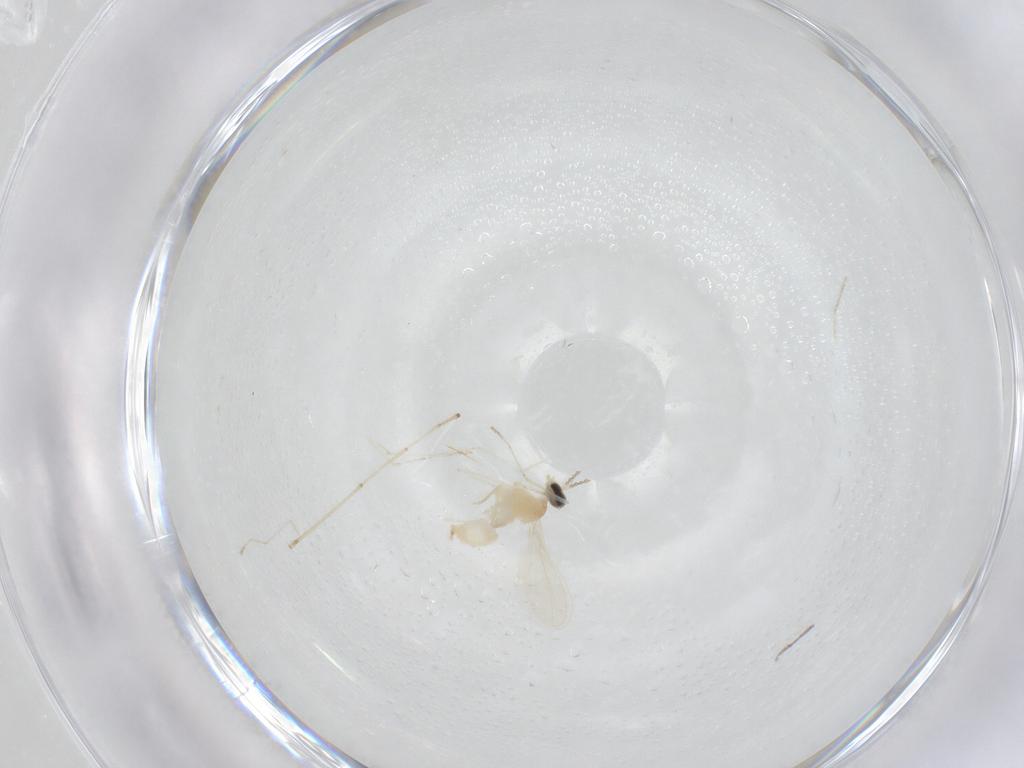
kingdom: Animalia
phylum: Arthropoda
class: Insecta
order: Diptera
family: Cecidomyiidae
